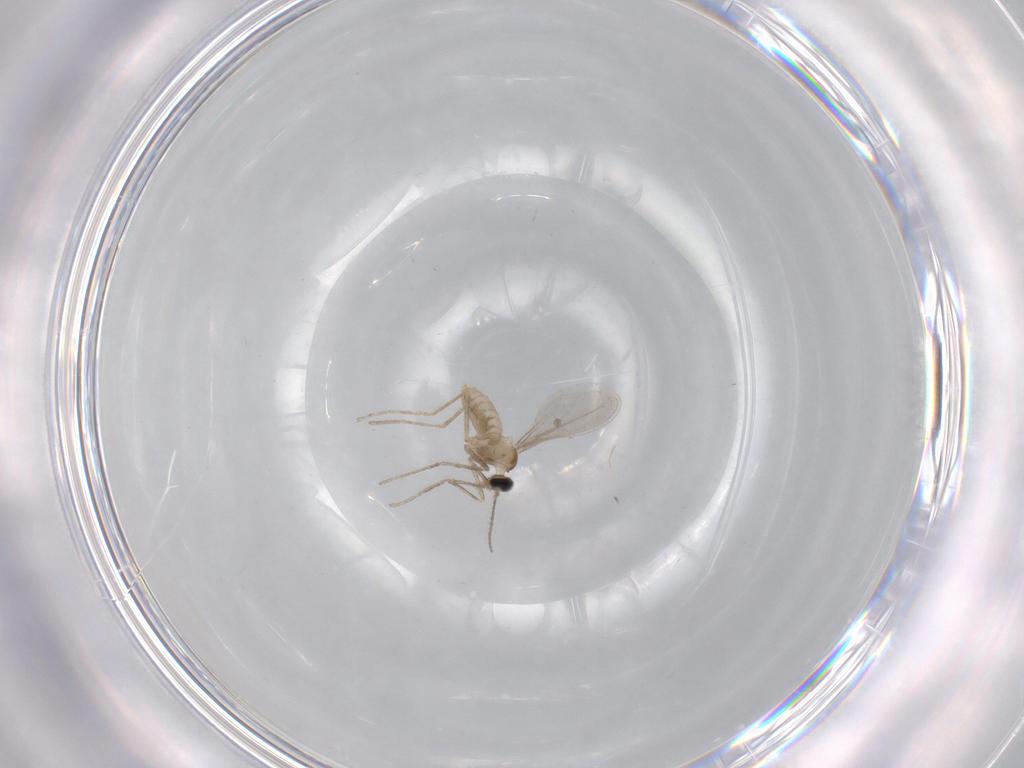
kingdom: Animalia
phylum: Arthropoda
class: Insecta
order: Diptera
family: Cecidomyiidae
